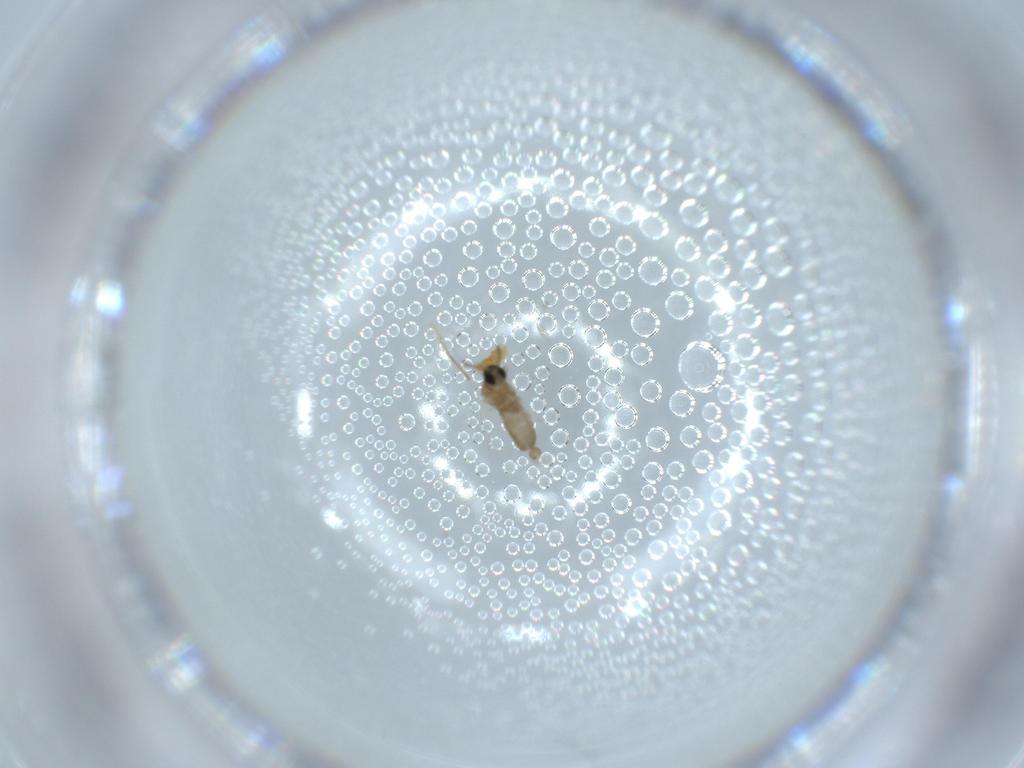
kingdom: Animalia
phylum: Arthropoda
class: Insecta
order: Diptera
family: Cecidomyiidae
